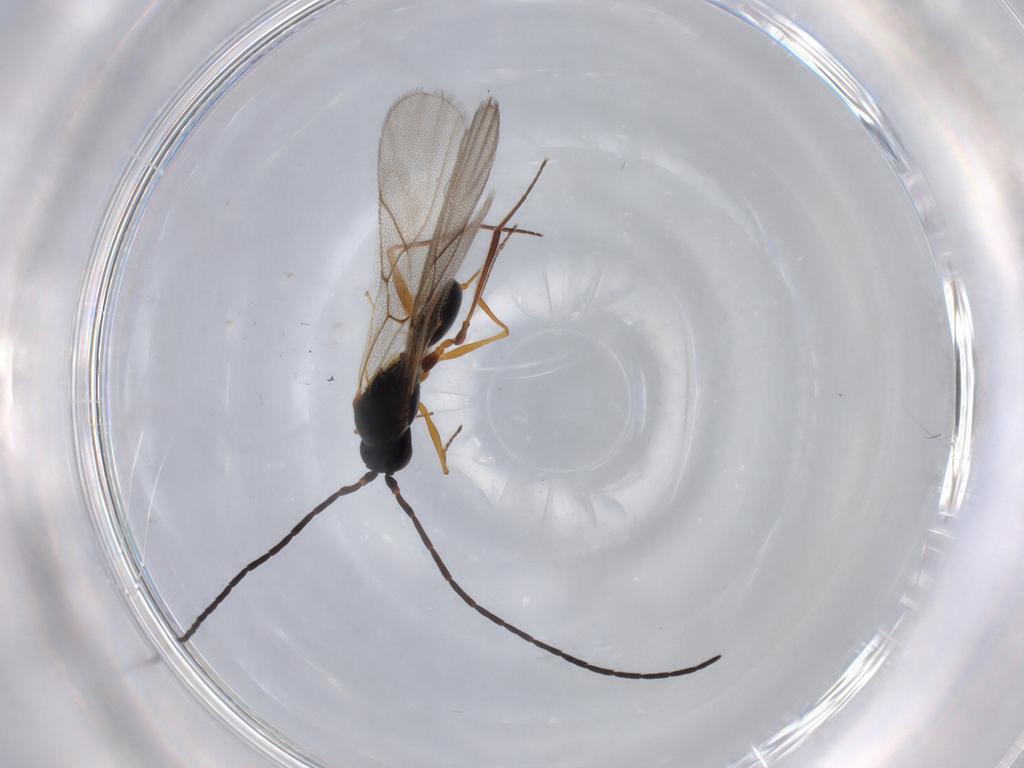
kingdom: Animalia
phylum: Arthropoda
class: Insecta
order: Hymenoptera
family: Figitidae
